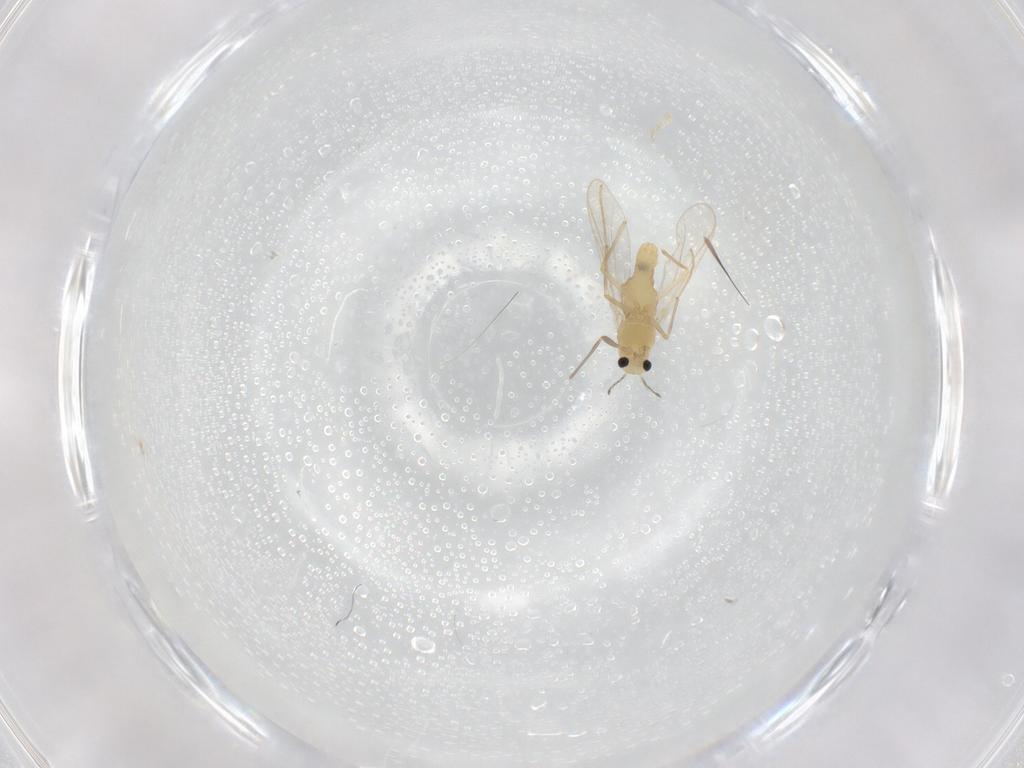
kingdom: Animalia
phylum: Arthropoda
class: Insecta
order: Diptera
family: Cecidomyiidae
